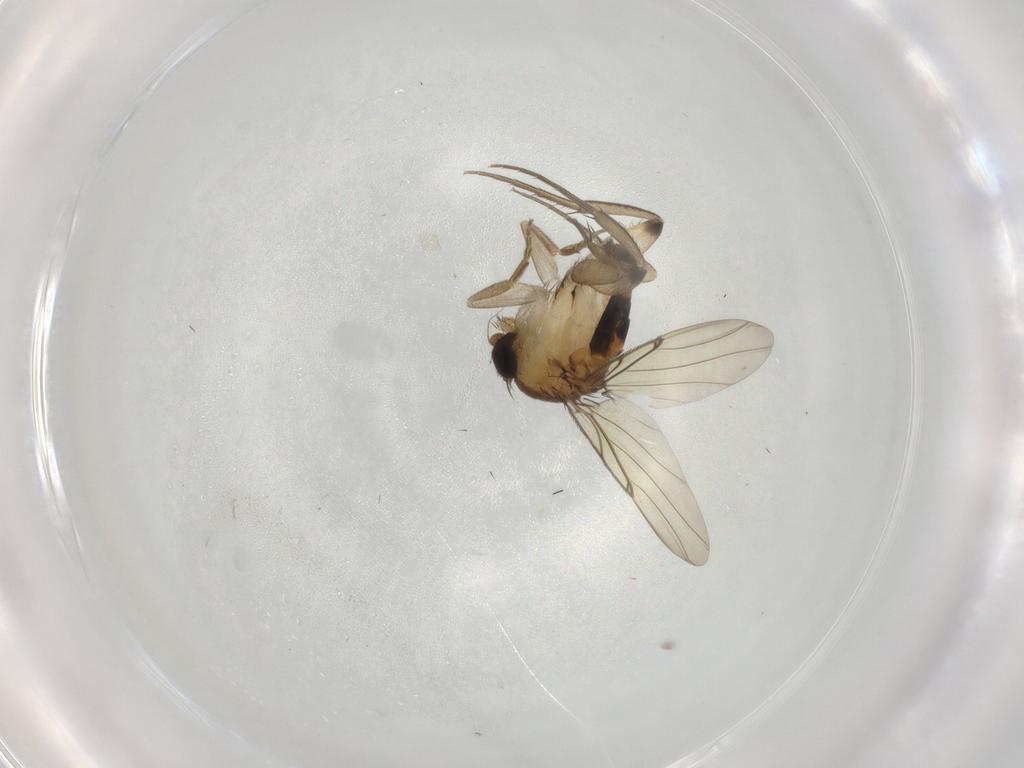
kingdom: Animalia
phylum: Arthropoda
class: Insecta
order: Diptera
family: Phoridae
